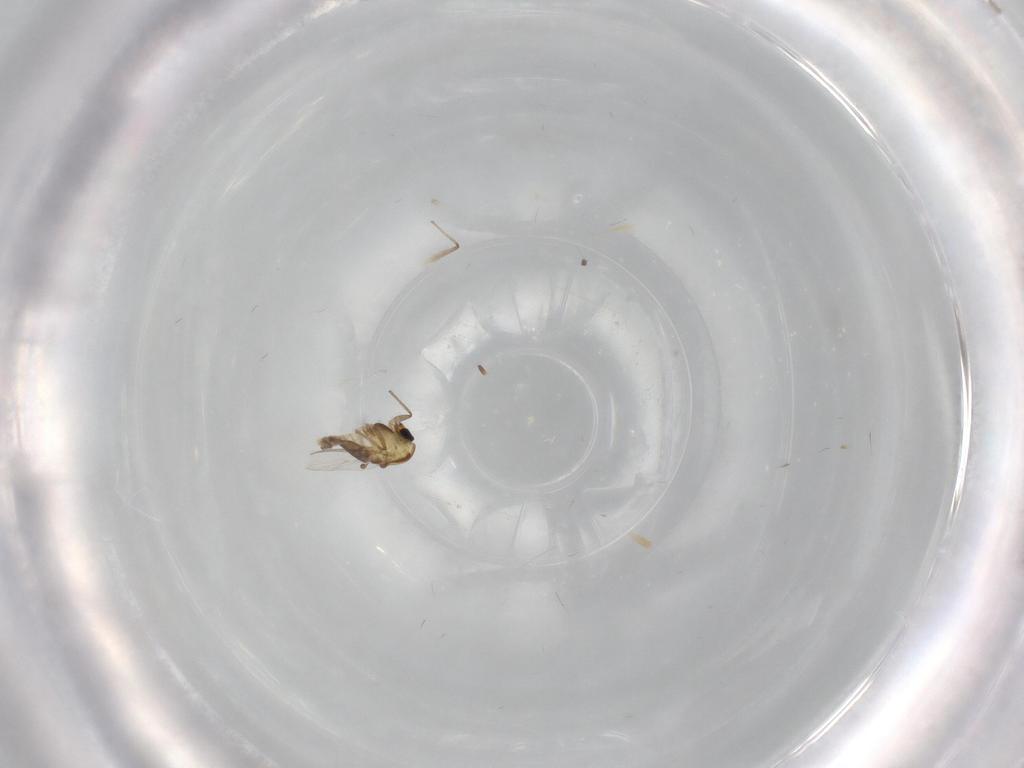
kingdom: Animalia
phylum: Arthropoda
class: Insecta
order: Diptera
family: Chironomidae
